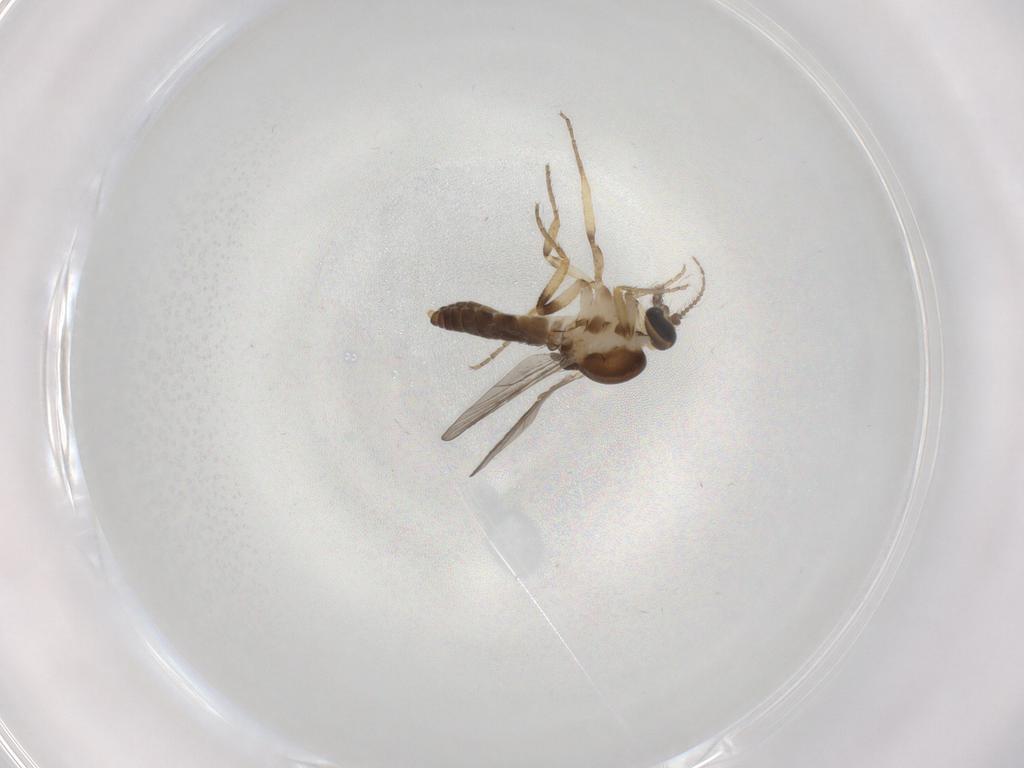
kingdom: Animalia
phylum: Arthropoda
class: Insecta
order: Diptera
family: Ceratopogonidae
